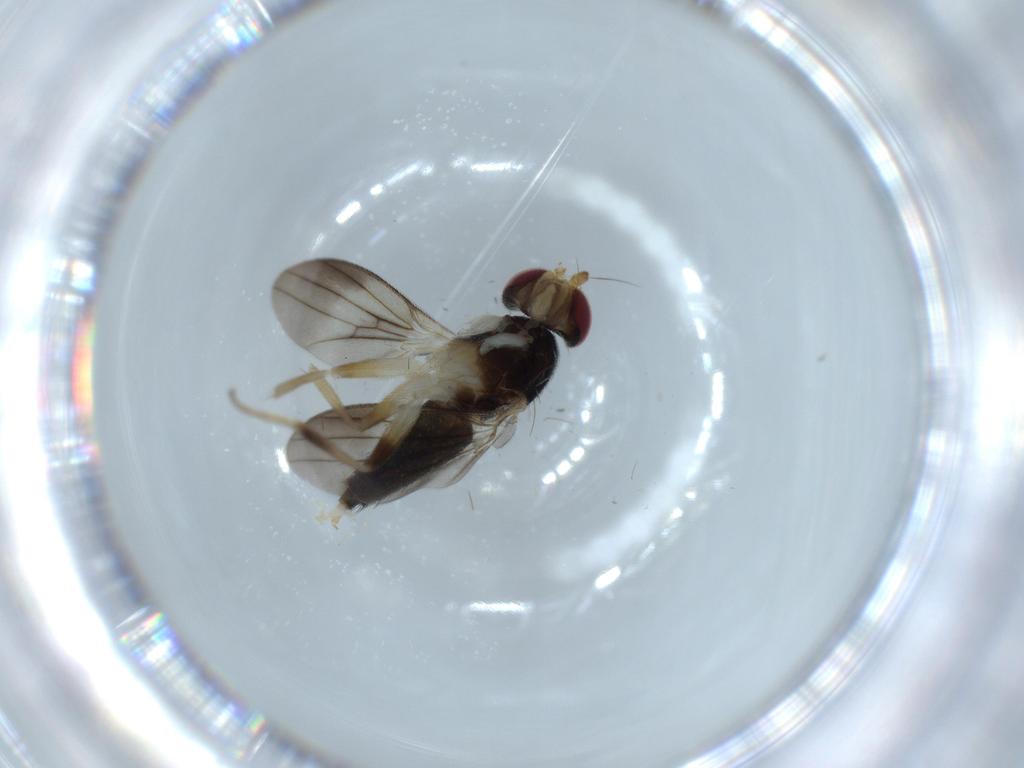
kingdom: Animalia
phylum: Arthropoda
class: Insecta
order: Diptera
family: Clusiidae
